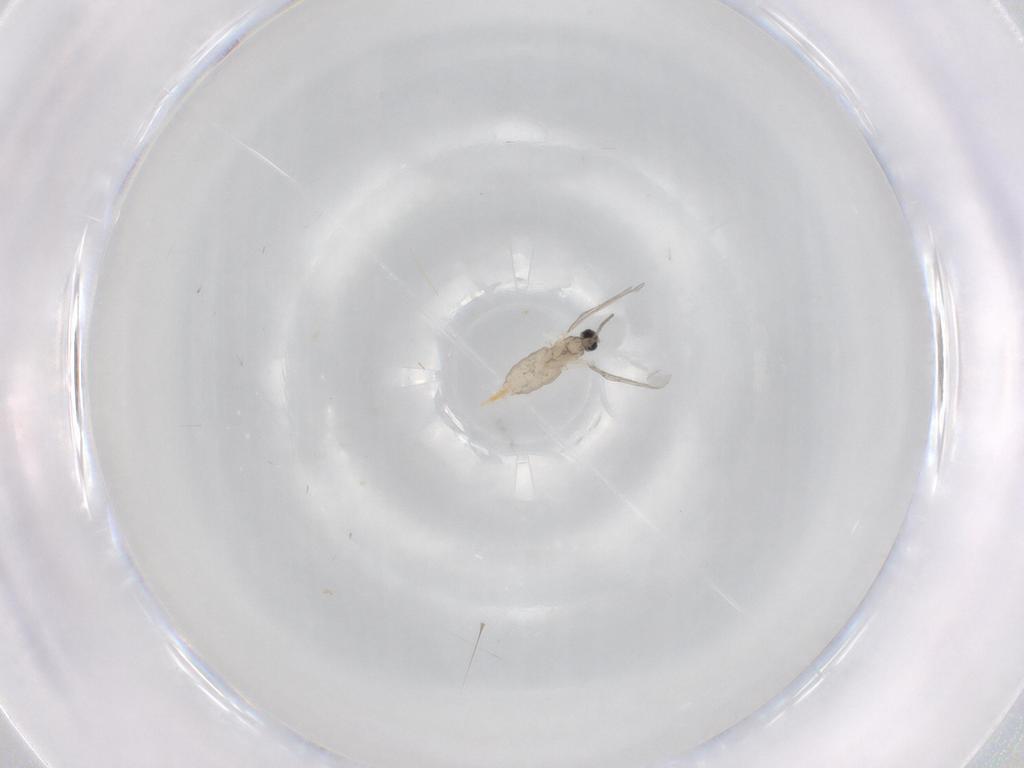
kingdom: Animalia
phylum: Arthropoda
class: Insecta
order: Diptera
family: Cecidomyiidae
